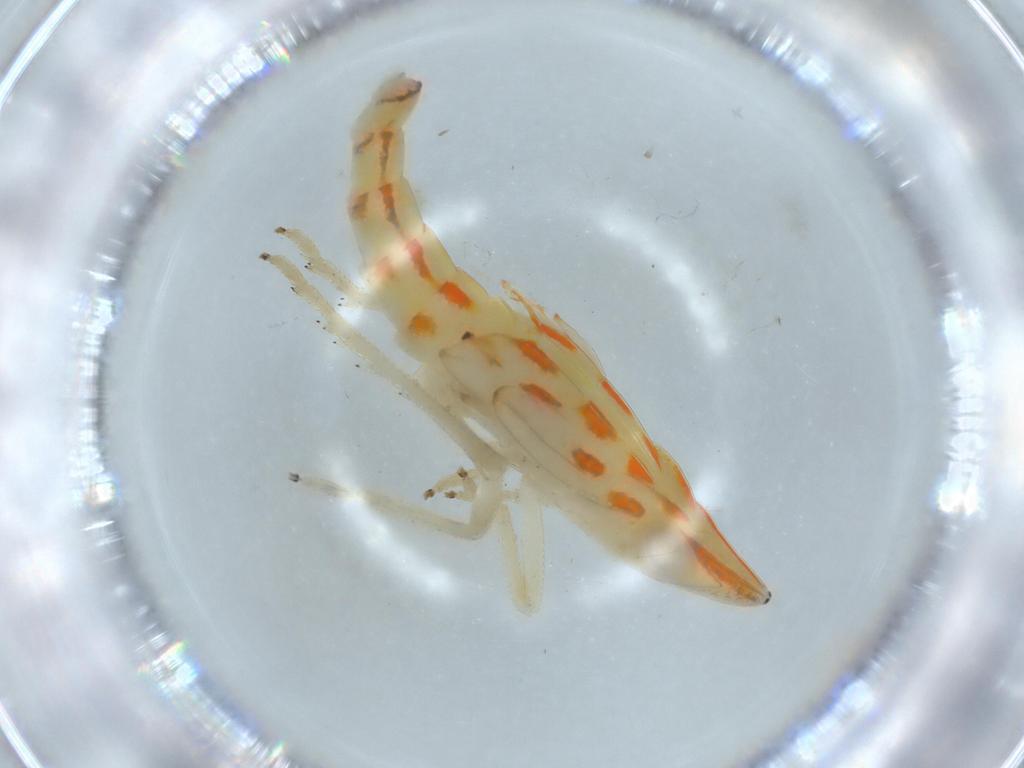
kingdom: Animalia
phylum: Arthropoda
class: Insecta
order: Hemiptera
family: Tropiduchidae
